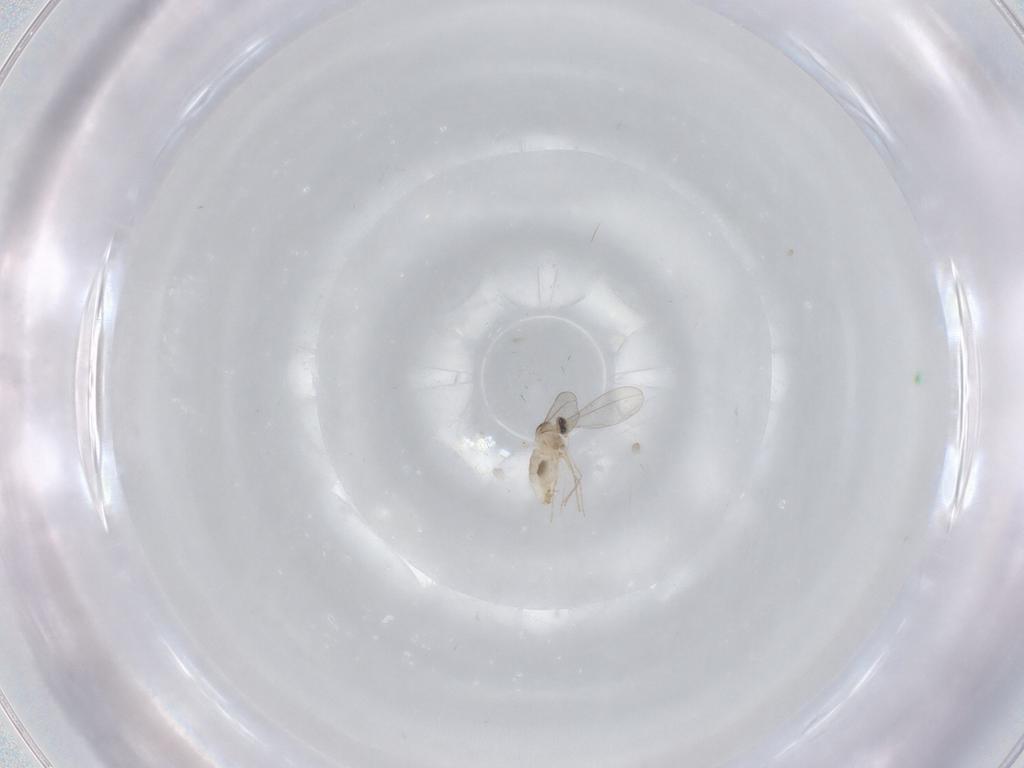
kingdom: Animalia
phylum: Arthropoda
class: Insecta
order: Diptera
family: Cecidomyiidae
